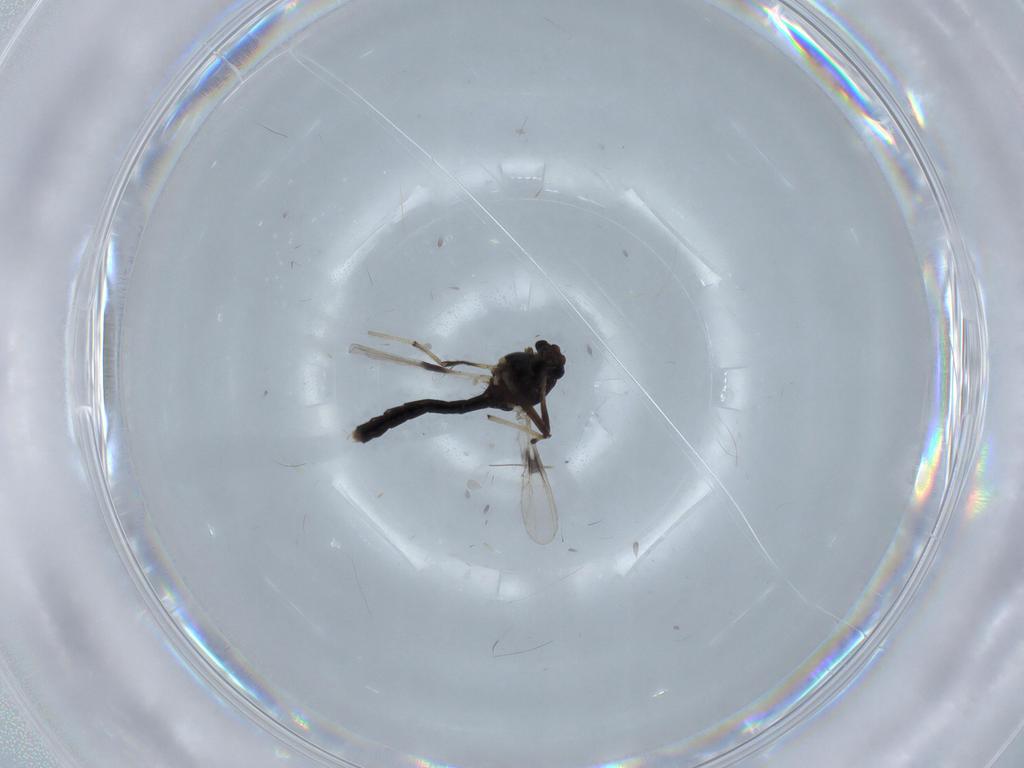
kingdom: Animalia
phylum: Arthropoda
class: Insecta
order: Diptera
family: Chironomidae
